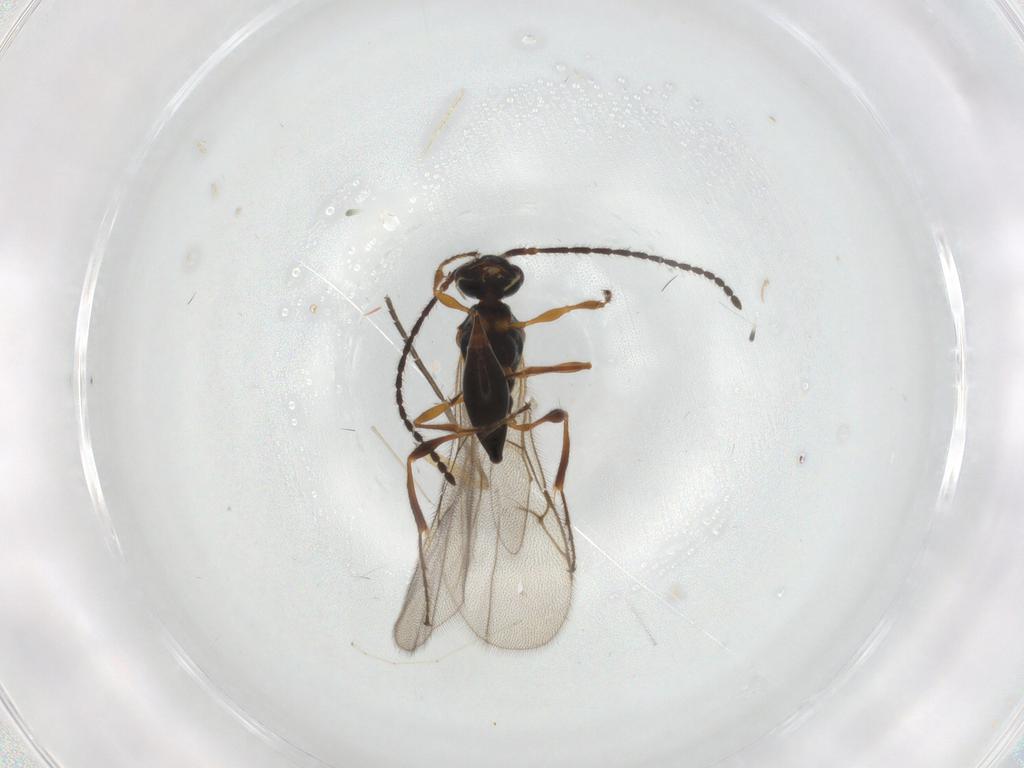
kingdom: Animalia
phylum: Arthropoda
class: Insecta
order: Hymenoptera
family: Diapriidae
